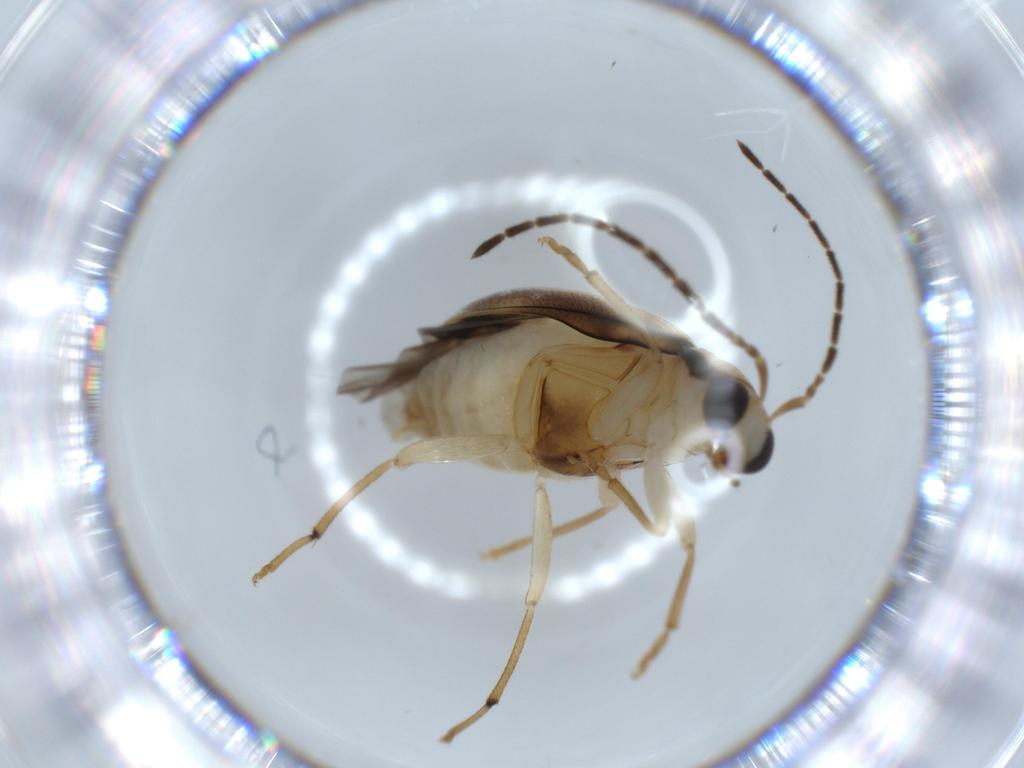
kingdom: Animalia
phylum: Arthropoda
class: Insecta
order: Coleoptera
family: Chrysomelidae
